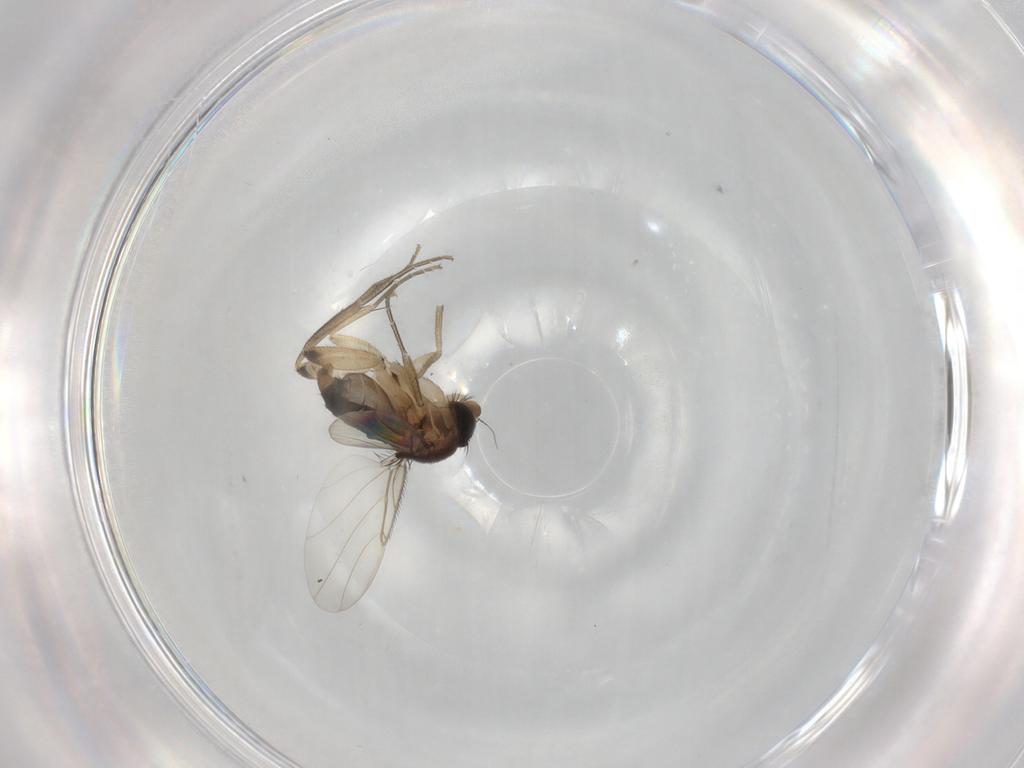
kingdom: Animalia
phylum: Arthropoda
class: Insecta
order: Diptera
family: Phoridae
